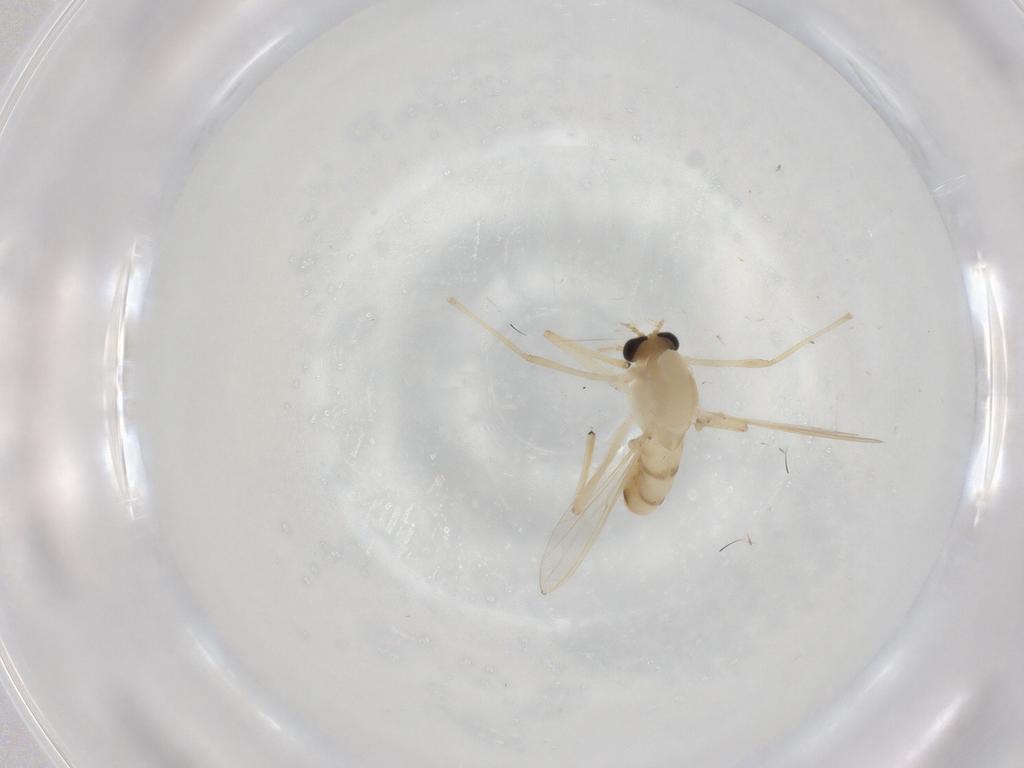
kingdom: Animalia
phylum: Arthropoda
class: Insecta
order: Diptera
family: Chironomidae
